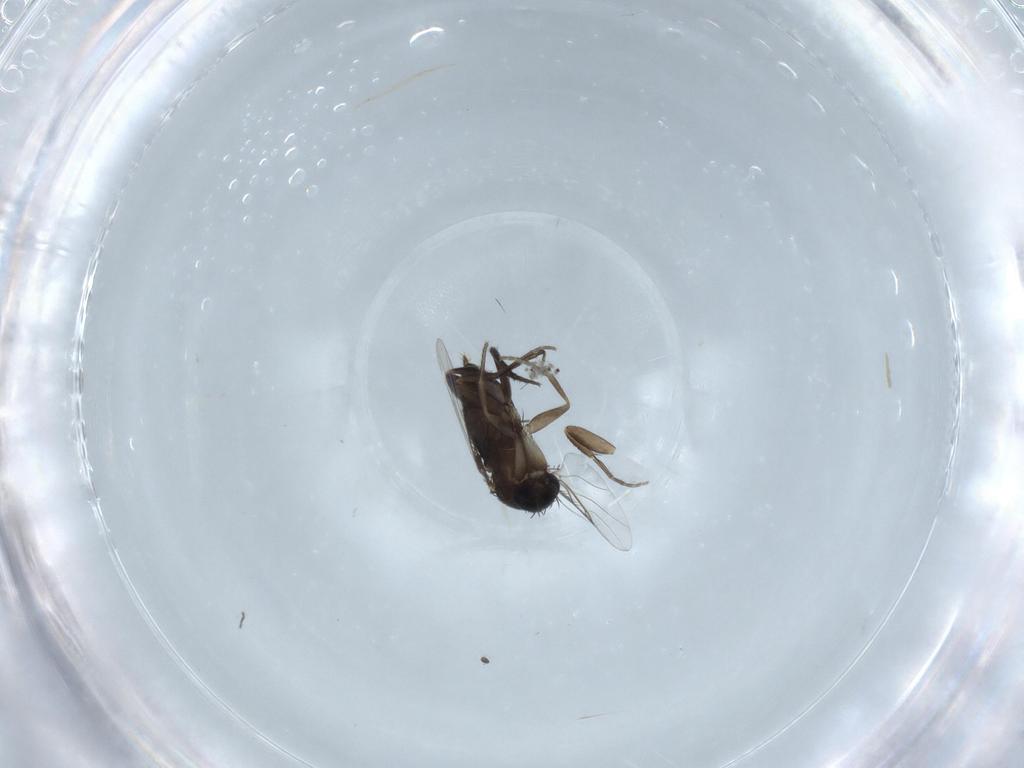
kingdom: Animalia
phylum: Arthropoda
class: Insecta
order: Diptera
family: Phoridae
